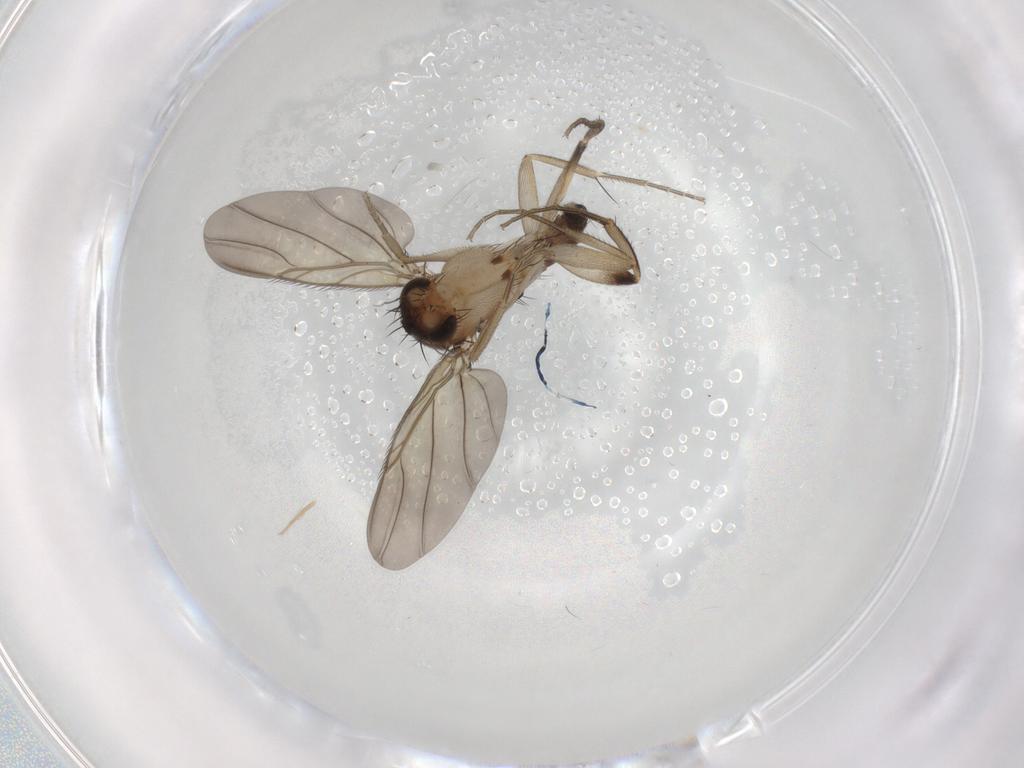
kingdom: Animalia
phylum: Arthropoda
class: Insecta
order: Diptera
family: Phoridae
